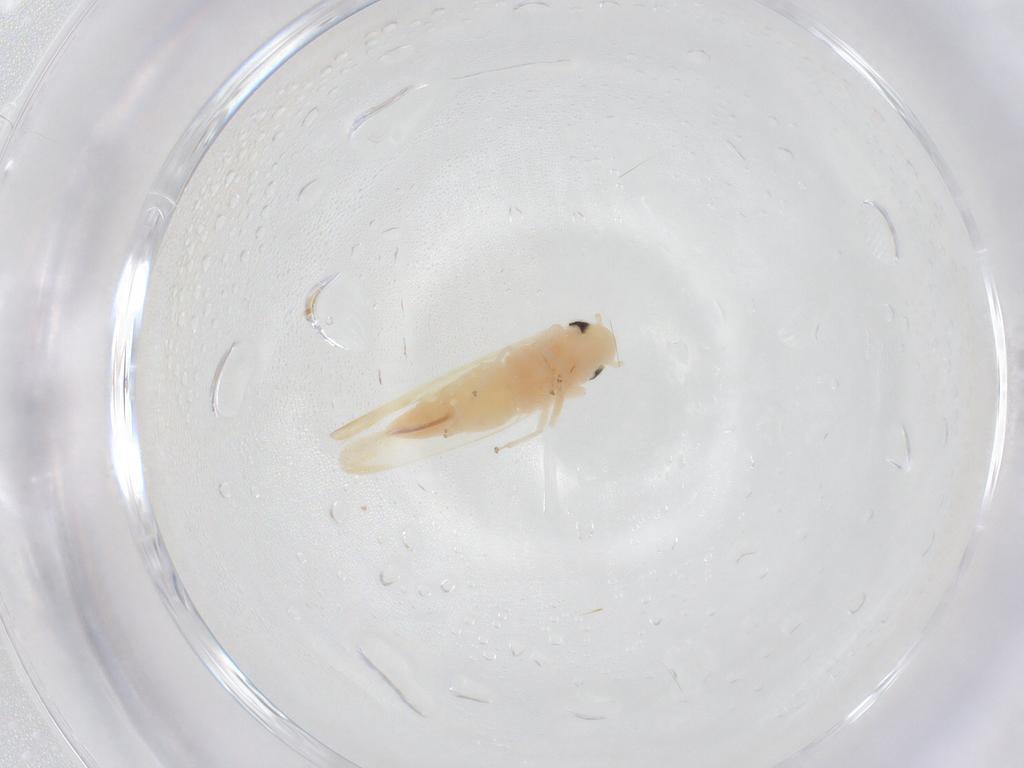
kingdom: Animalia
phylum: Arthropoda
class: Insecta
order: Hemiptera
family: Cicadellidae
